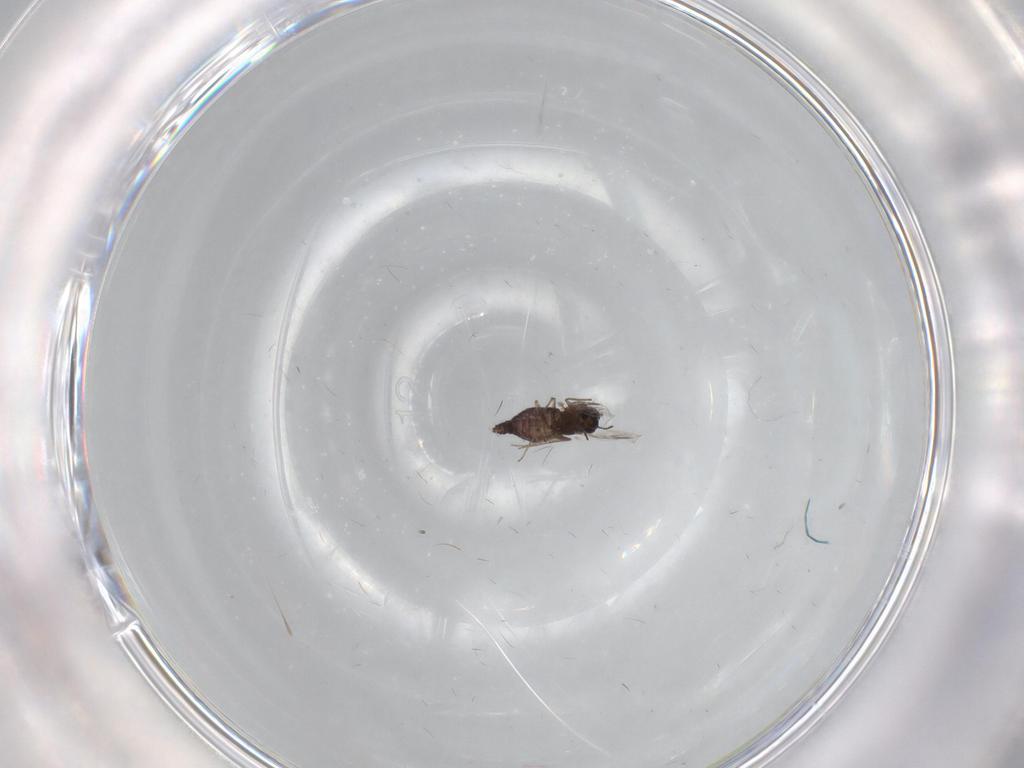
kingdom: Animalia
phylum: Arthropoda
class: Insecta
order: Diptera
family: Chironomidae
